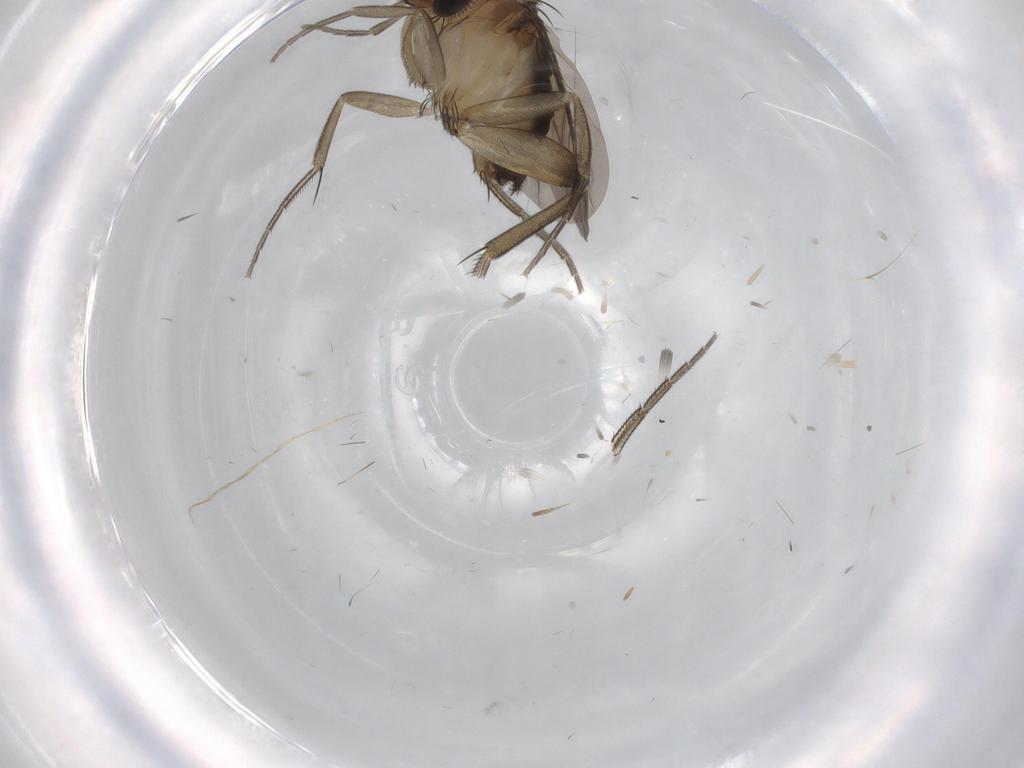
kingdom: Animalia
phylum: Arthropoda
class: Insecta
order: Diptera
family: Phoridae
